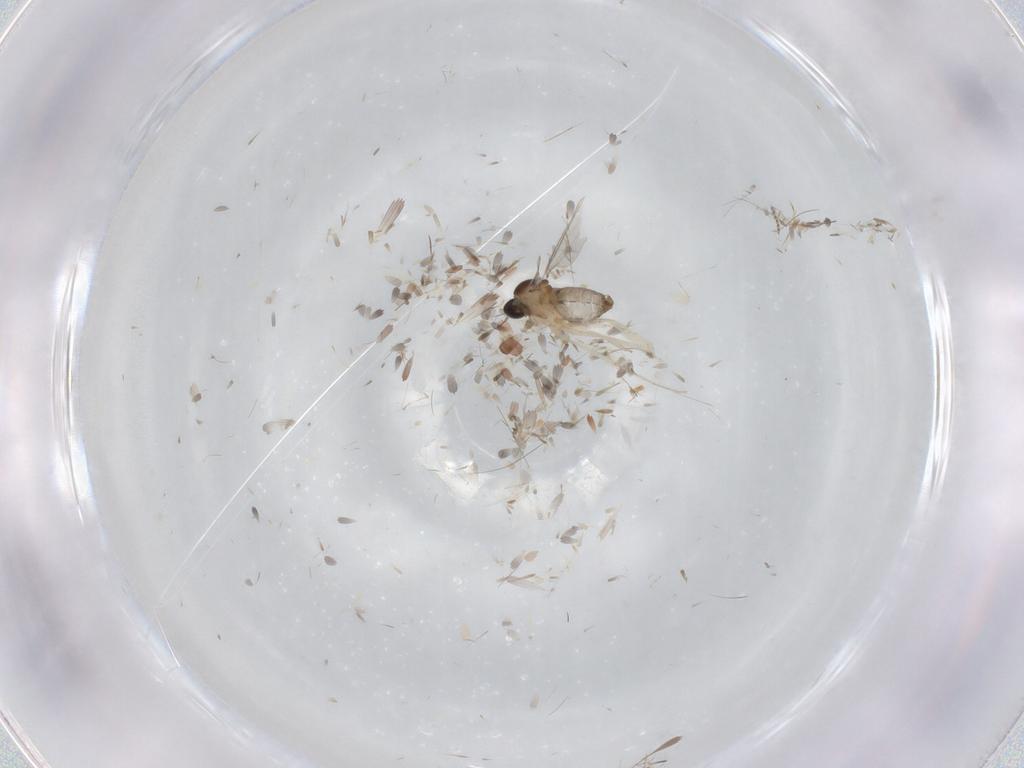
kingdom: Animalia
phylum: Arthropoda
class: Insecta
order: Diptera
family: Cecidomyiidae
